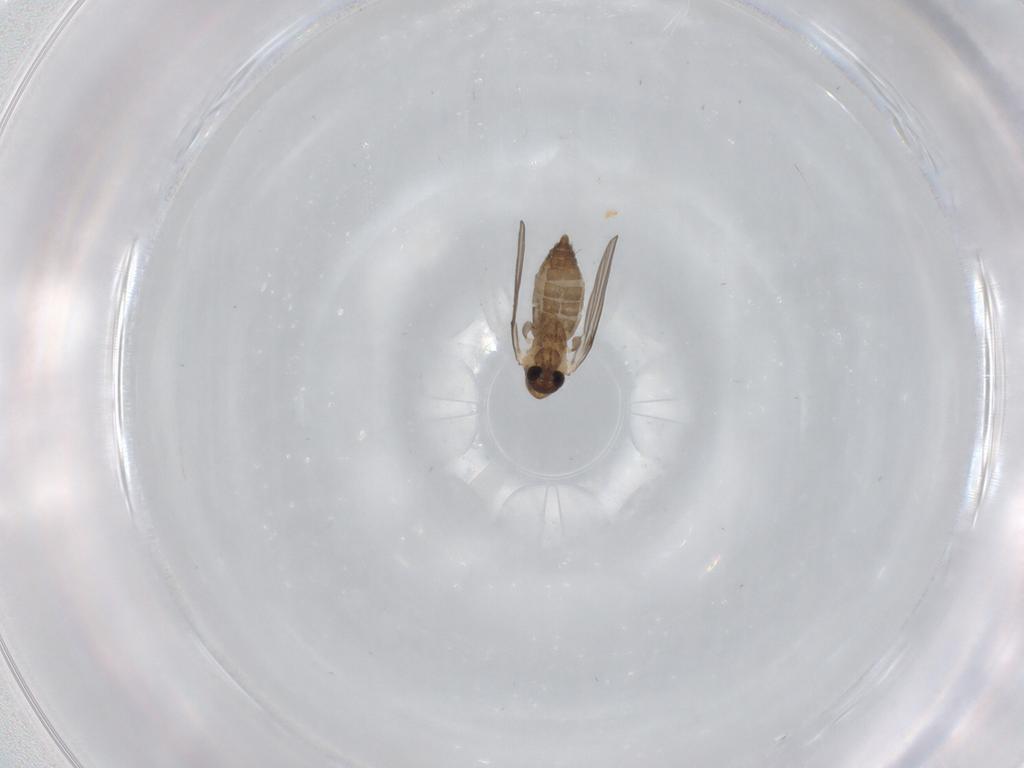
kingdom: Animalia
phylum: Arthropoda
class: Insecta
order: Diptera
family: Psychodidae
